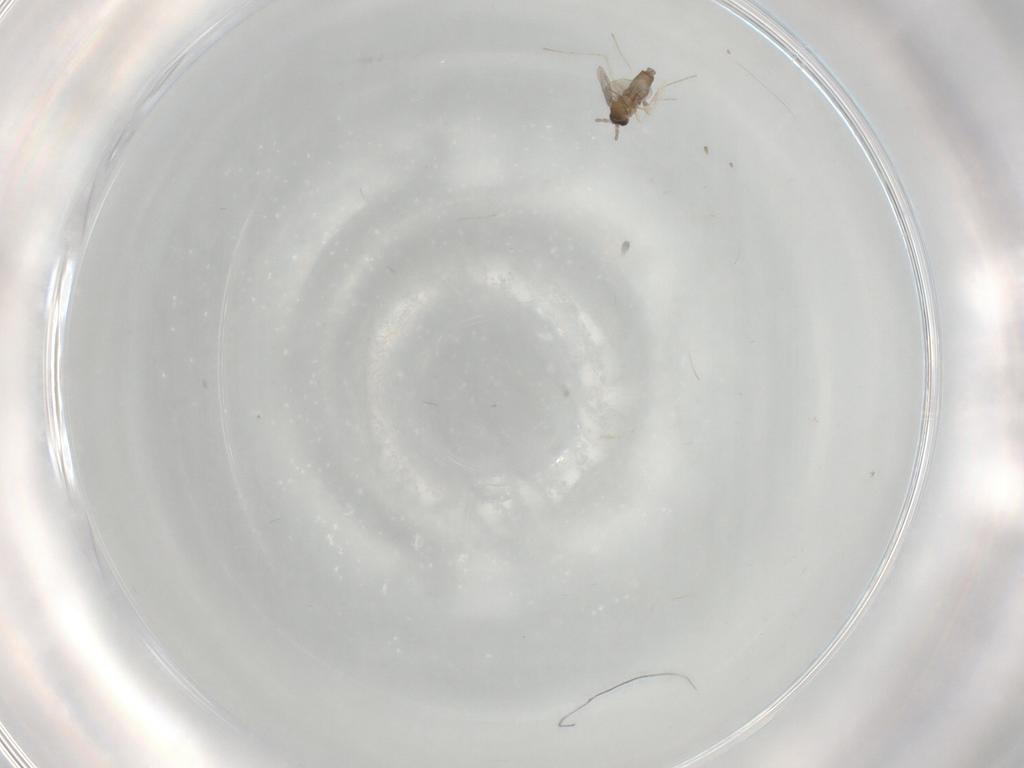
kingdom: Animalia
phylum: Arthropoda
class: Insecta
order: Diptera
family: Cecidomyiidae
